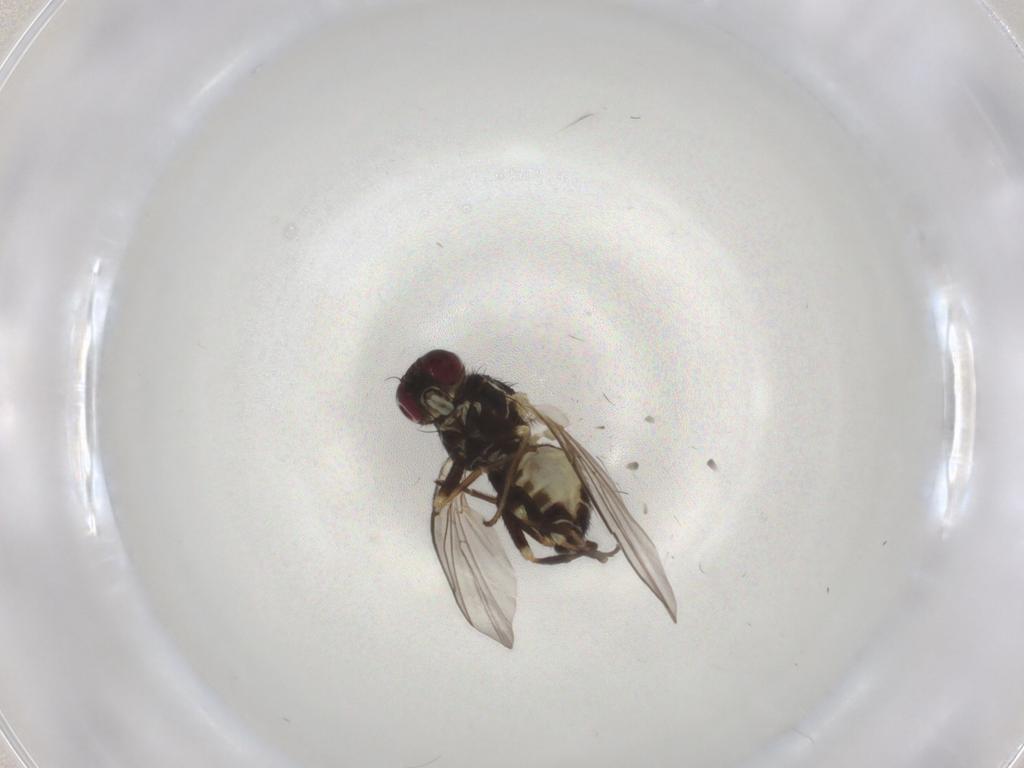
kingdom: Animalia
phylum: Arthropoda
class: Insecta
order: Diptera
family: Agromyzidae
